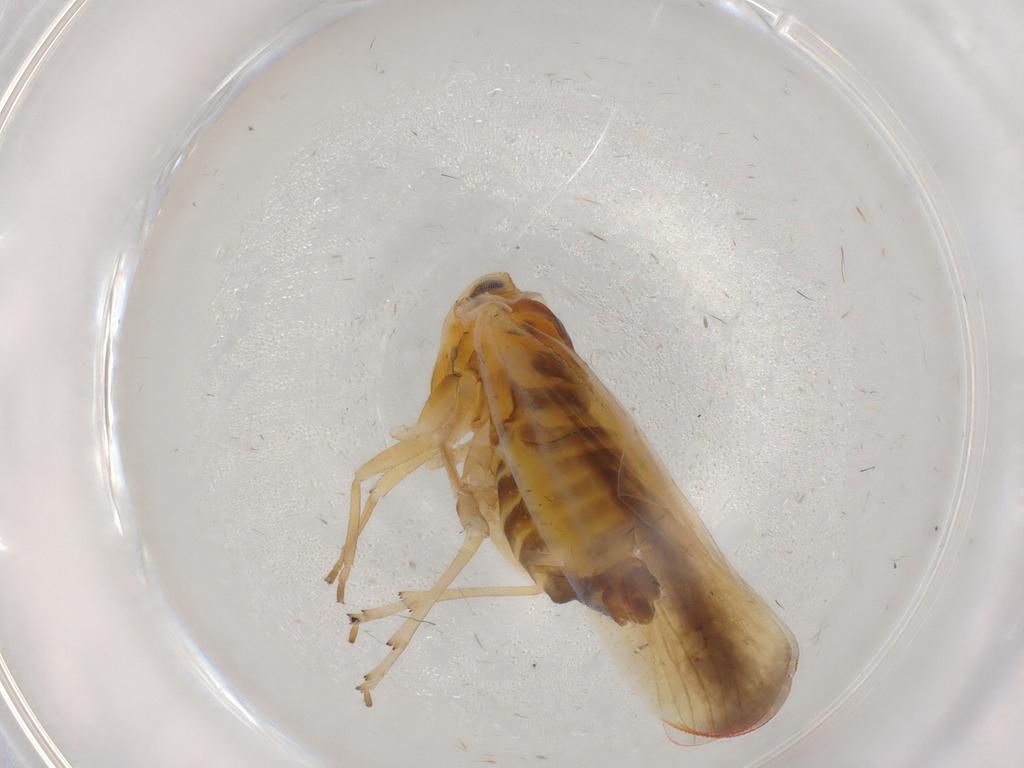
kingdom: Animalia
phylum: Arthropoda
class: Insecta
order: Hemiptera
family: Derbidae
